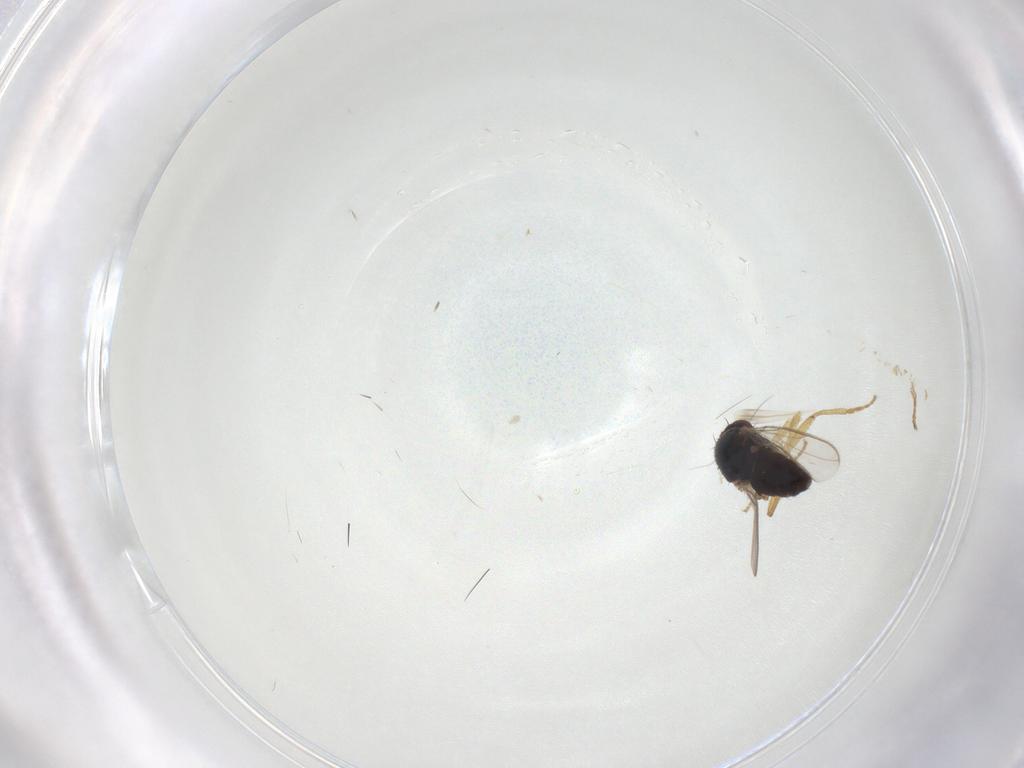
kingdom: Animalia
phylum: Arthropoda
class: Insecta
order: Diptera
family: Sphaeroceridae
